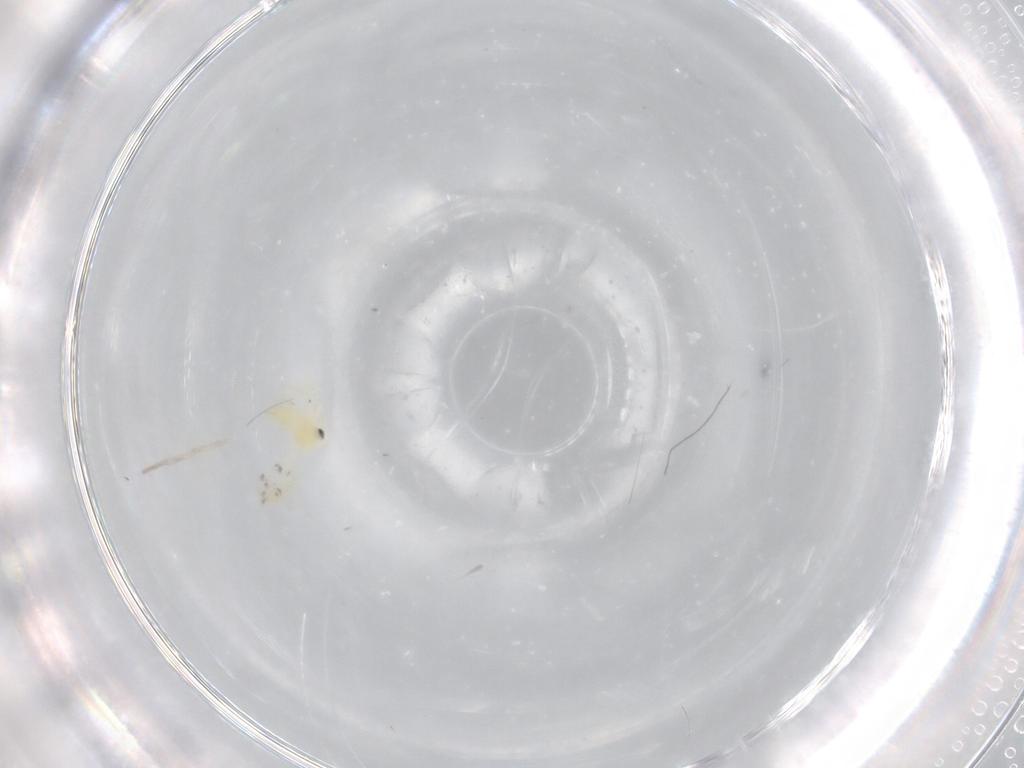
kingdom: Animalia
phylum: Arthropoda
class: Insecta
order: Hemiptera
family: Aleyrodidae
